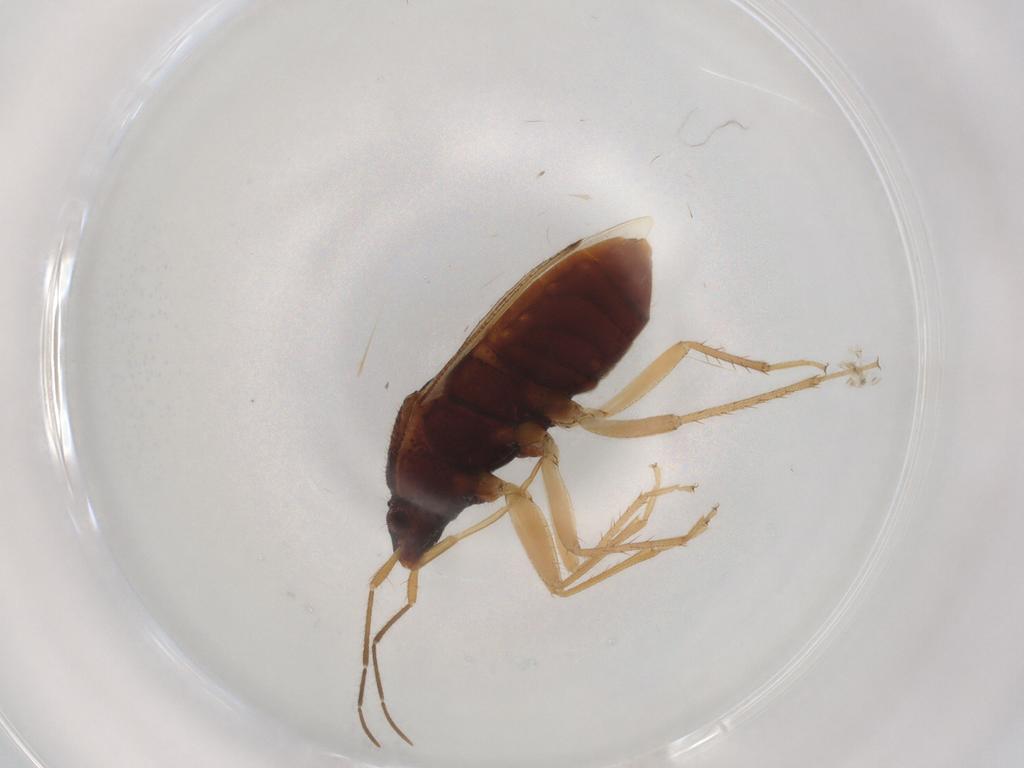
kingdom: Animalia
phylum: Arthropoda
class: Insecta
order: Hemiptera
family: Rhyparochromidae
